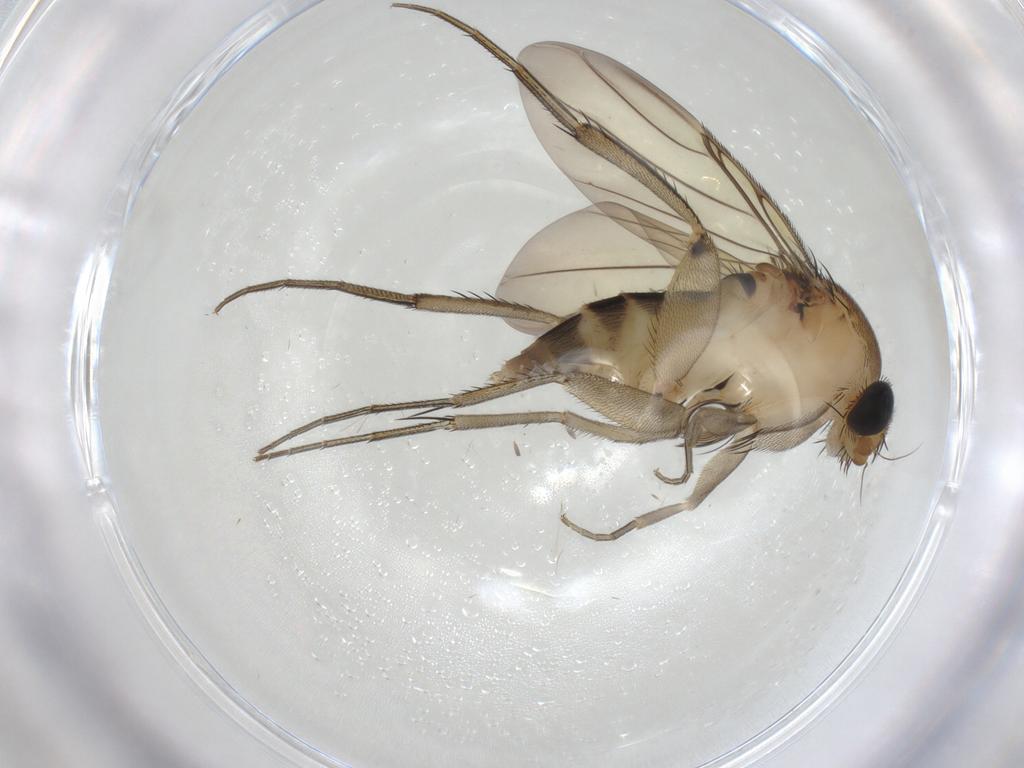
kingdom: Animalia
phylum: Arthropoda
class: Insecta
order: Diptera
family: Phoridae
